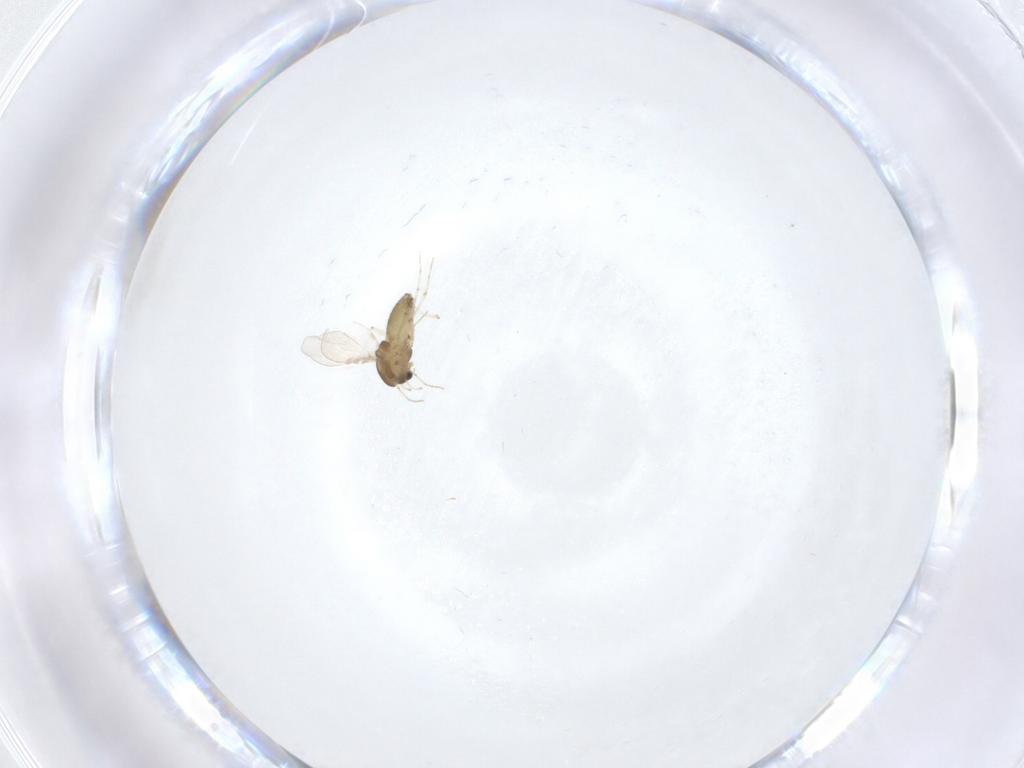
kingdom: Animalia
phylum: Arthropoda
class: Insecta
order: Diptera
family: Chironomidae
